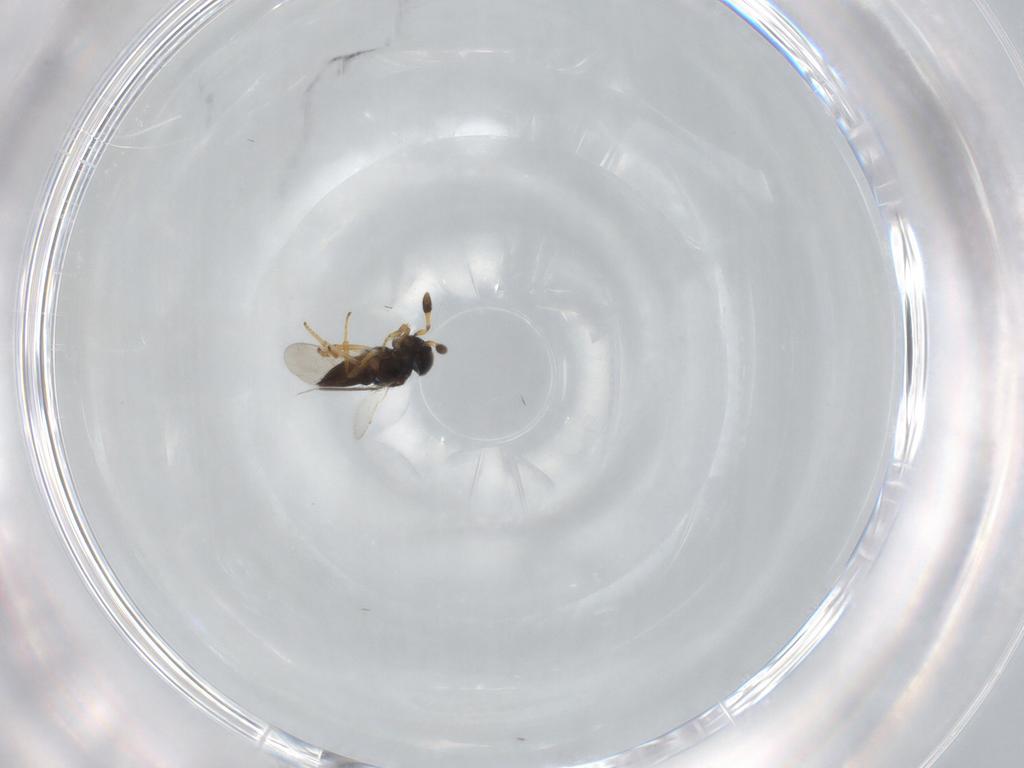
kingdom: Animalia
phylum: Arthropoda
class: Insecta
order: Hymenoptera
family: Encyrtidae
